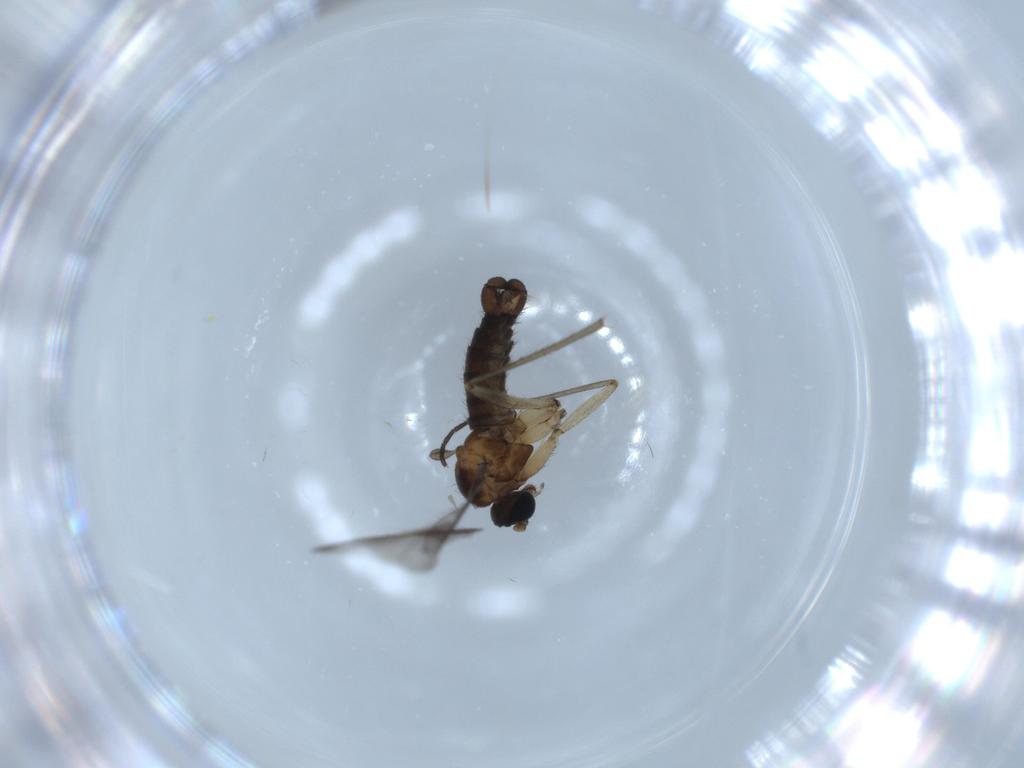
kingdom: Animalia
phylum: Arthropoda
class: Insecta
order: Diptera
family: Sciaridae
